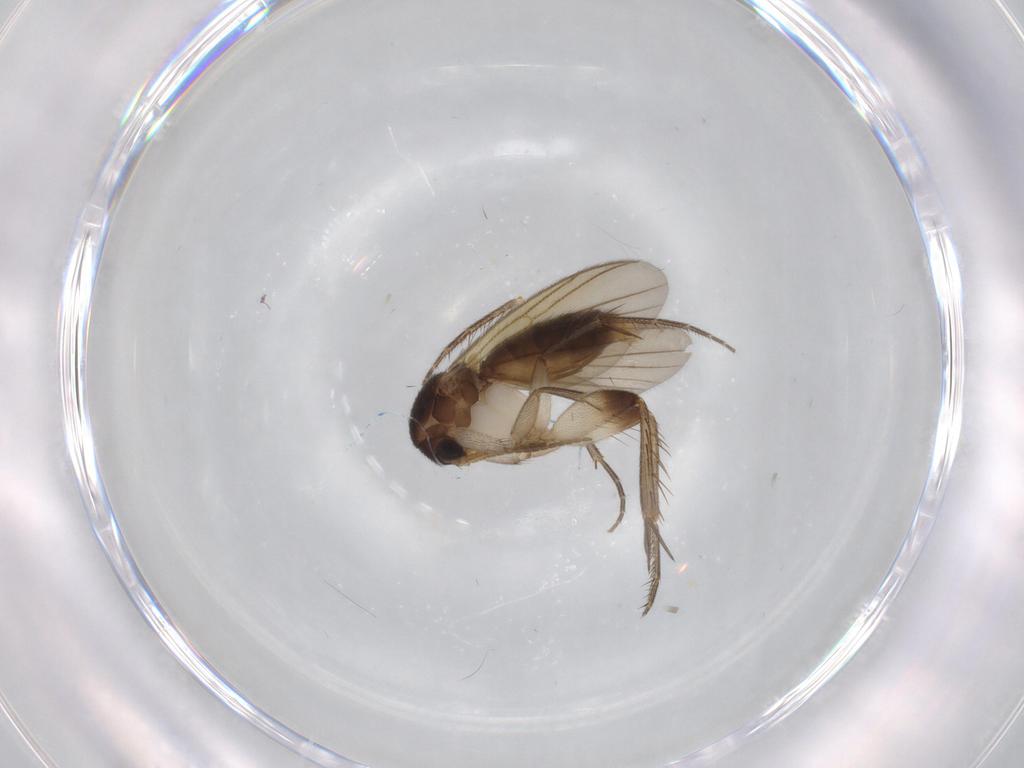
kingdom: Animalia
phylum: Arthropoda
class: Insecta
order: Diptera
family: Mycetophilidae
